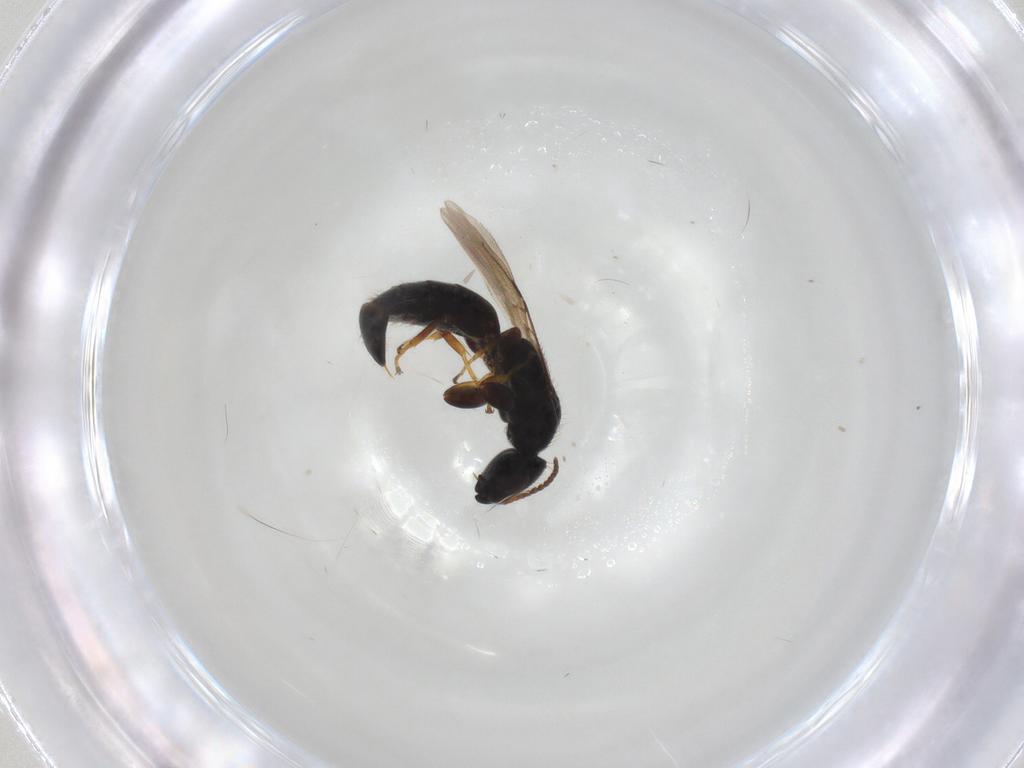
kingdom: Animalia
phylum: Arthropoda
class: Insecta
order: Hymenoptera
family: Bethylidae
